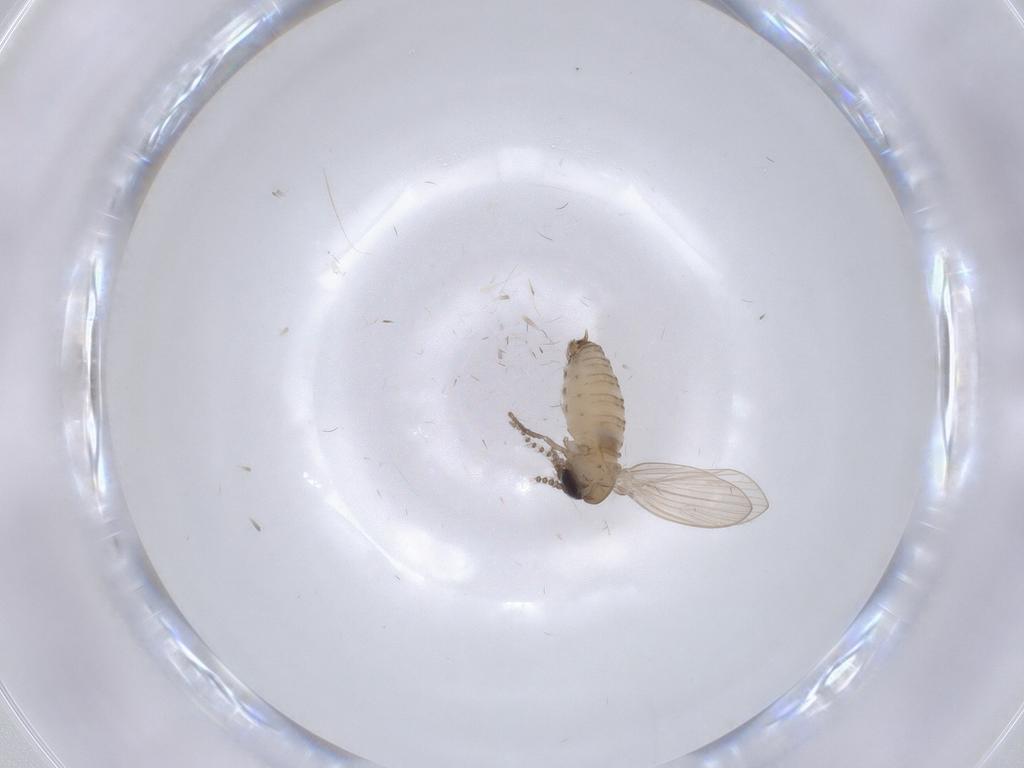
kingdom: Animalia
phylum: Arthropoda
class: Insecta
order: Diptera
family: Psychodidae
